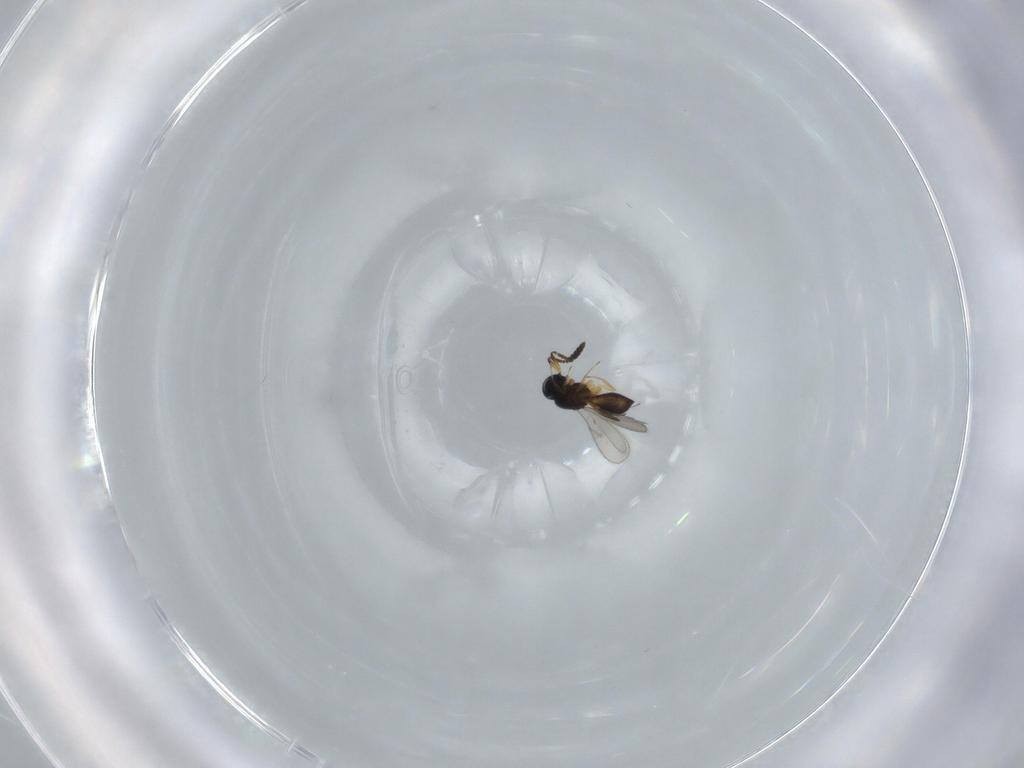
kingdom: Animalia
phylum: Arthropoda
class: Insecta
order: Hymenoptera
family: Scelionidae
